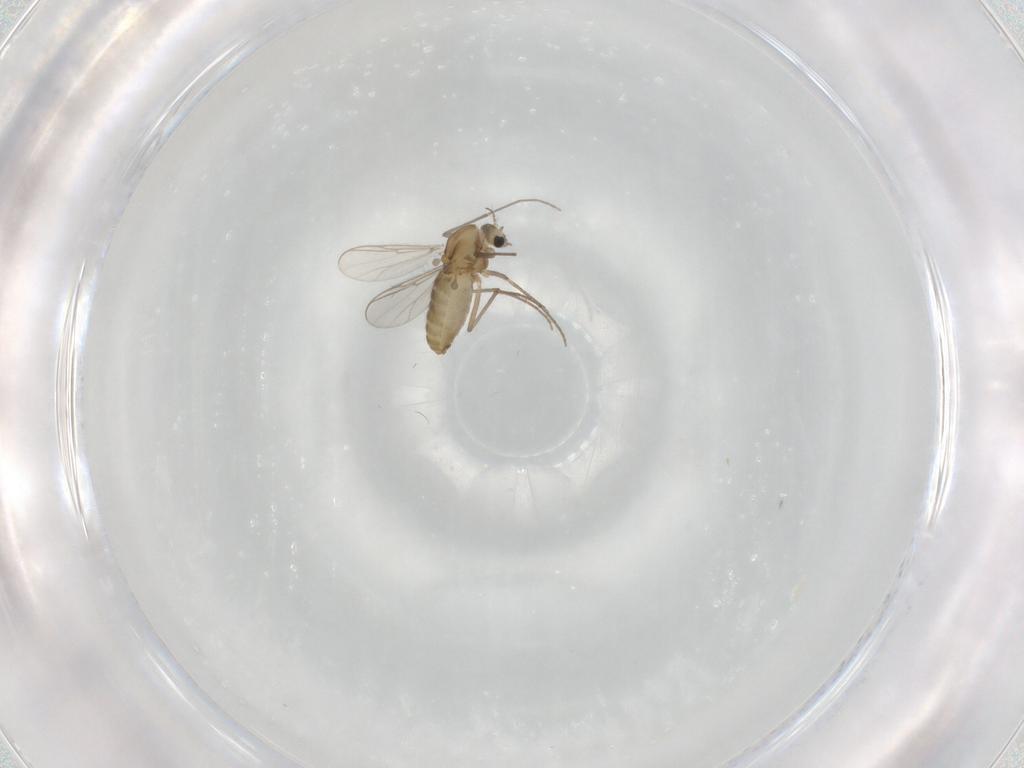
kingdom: Animalia
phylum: Arthropoda
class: Insecta
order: Diptera
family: Chironomidae
